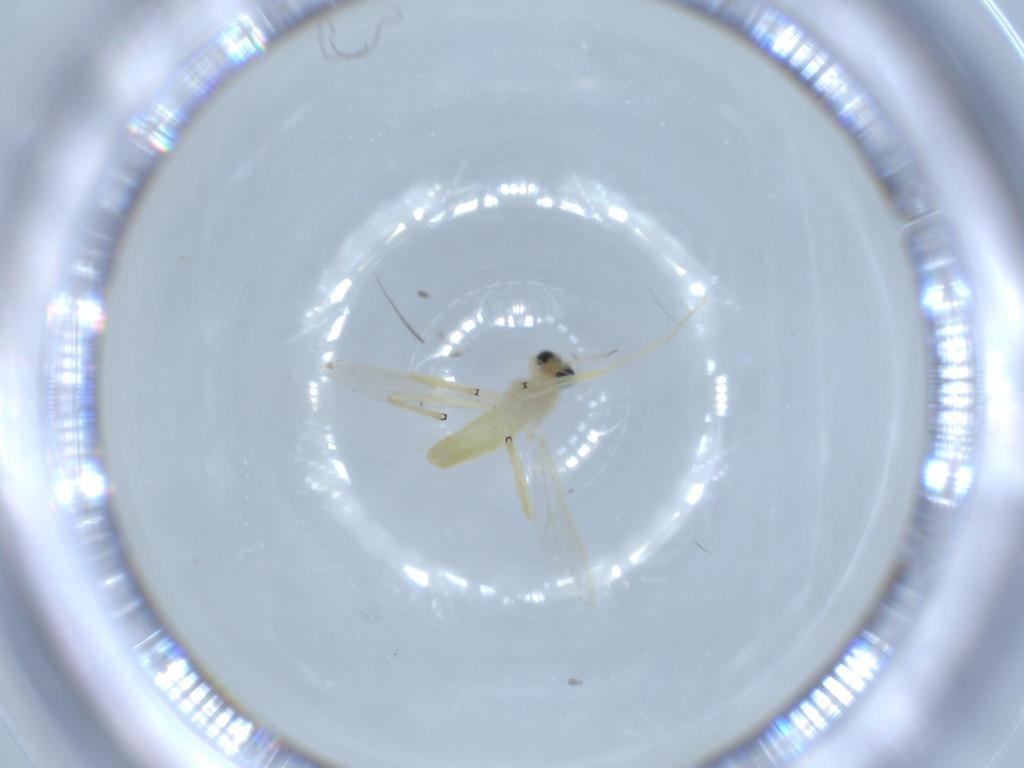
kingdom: Animalia
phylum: Arthropoda
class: Insecta
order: Diptera
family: Chironomidae
